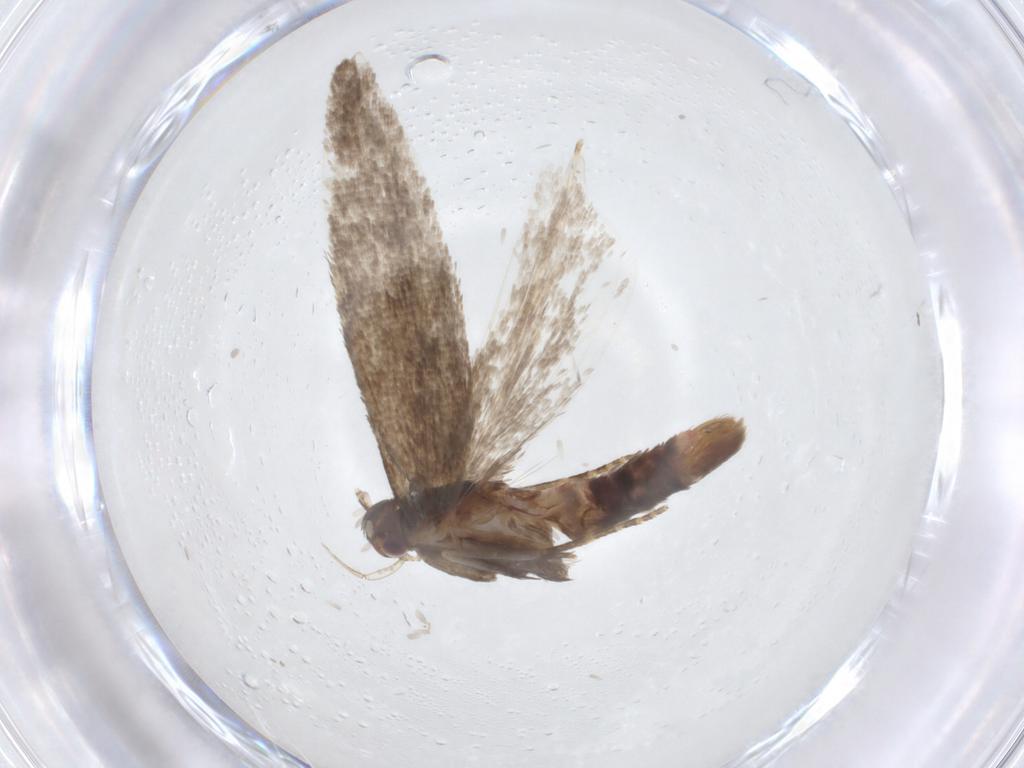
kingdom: Animalia
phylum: Arthropoda
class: Insecta
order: Lepidoptera
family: Gelechiidae
